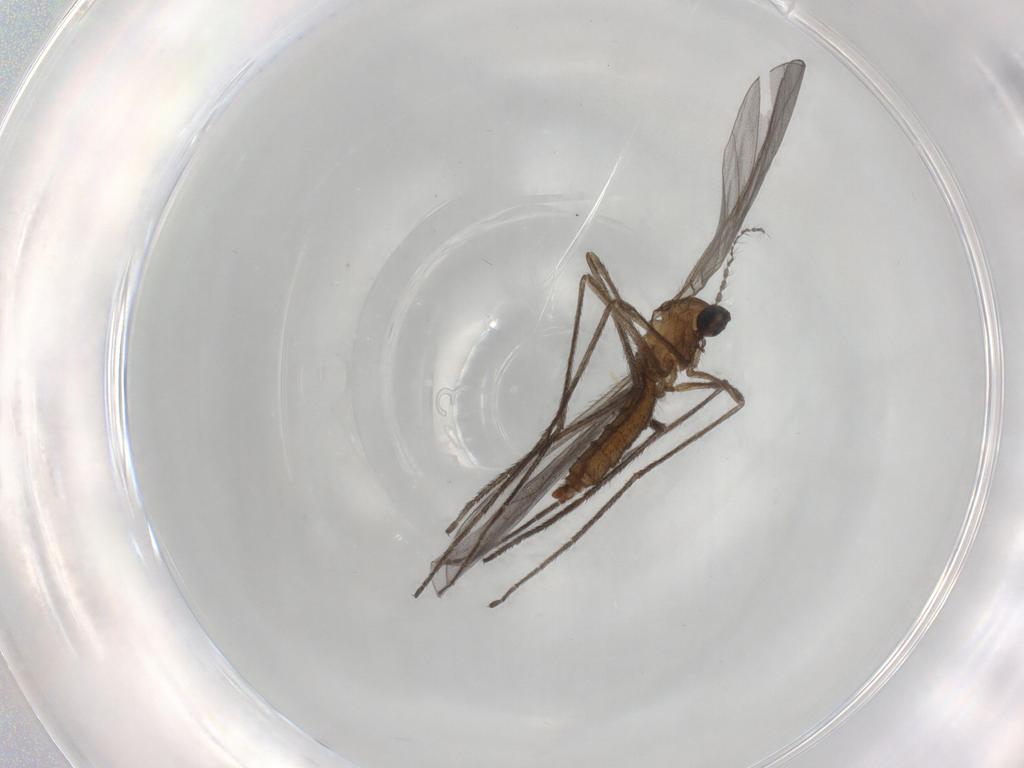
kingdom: Animalia
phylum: Arthropoda
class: Insecta
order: Diptera
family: Cecidomyiidae
